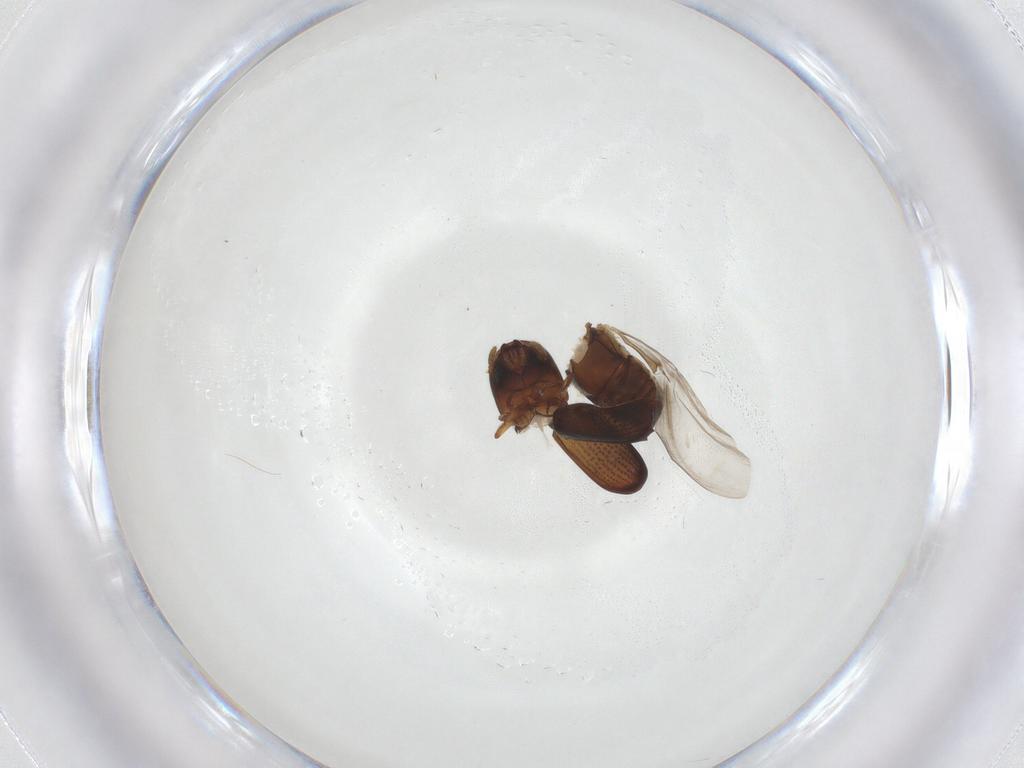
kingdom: Animalia
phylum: Arthropoda
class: Insecta
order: Coleoptera
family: Curculionidae
